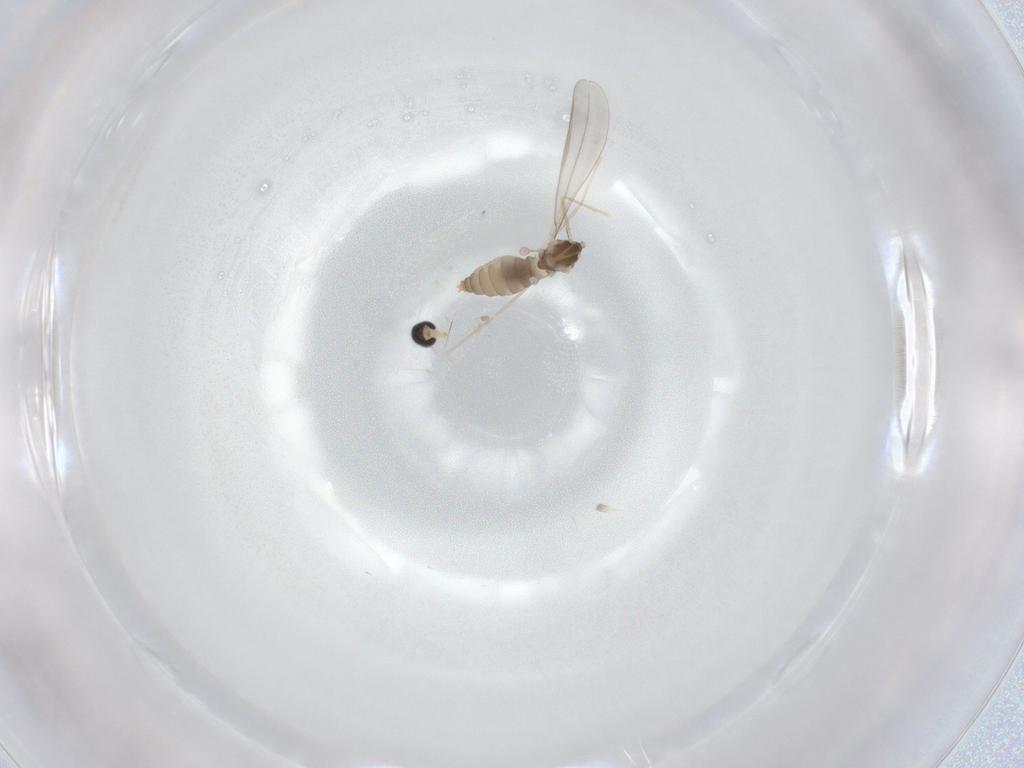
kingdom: Animalia
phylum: Arthropoda
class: Insecta
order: Diptera
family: Cecidomyiidae
